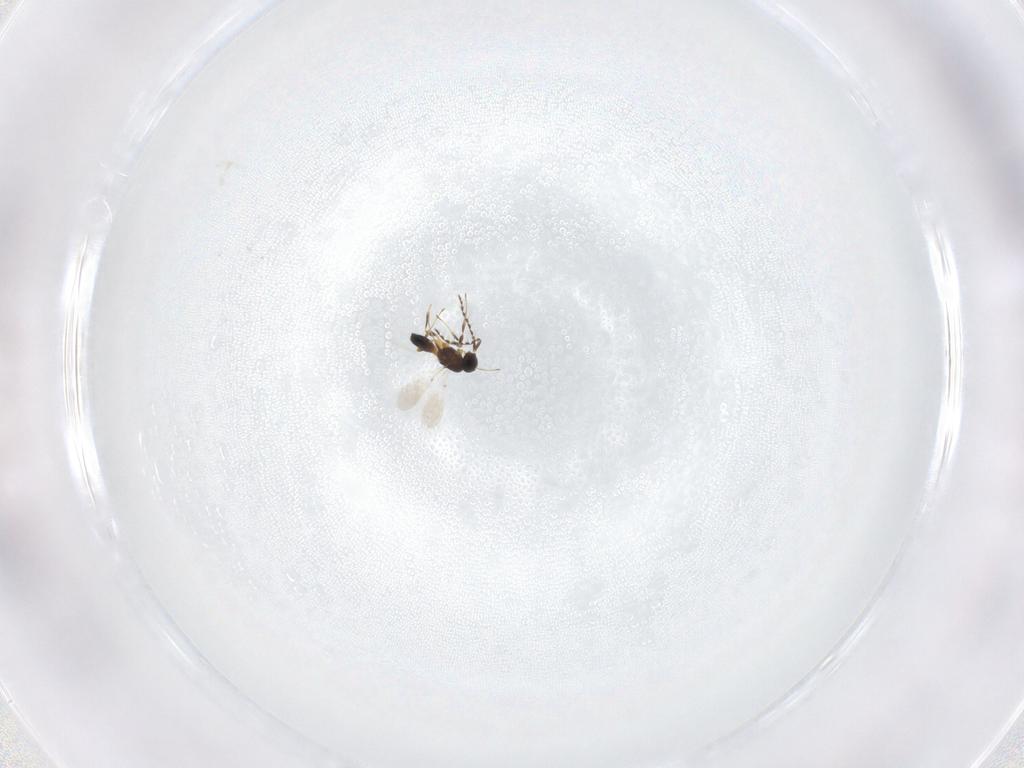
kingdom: Animalia
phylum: Arthropoda
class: Insecta
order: Hymenoptera
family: Platygastridae
